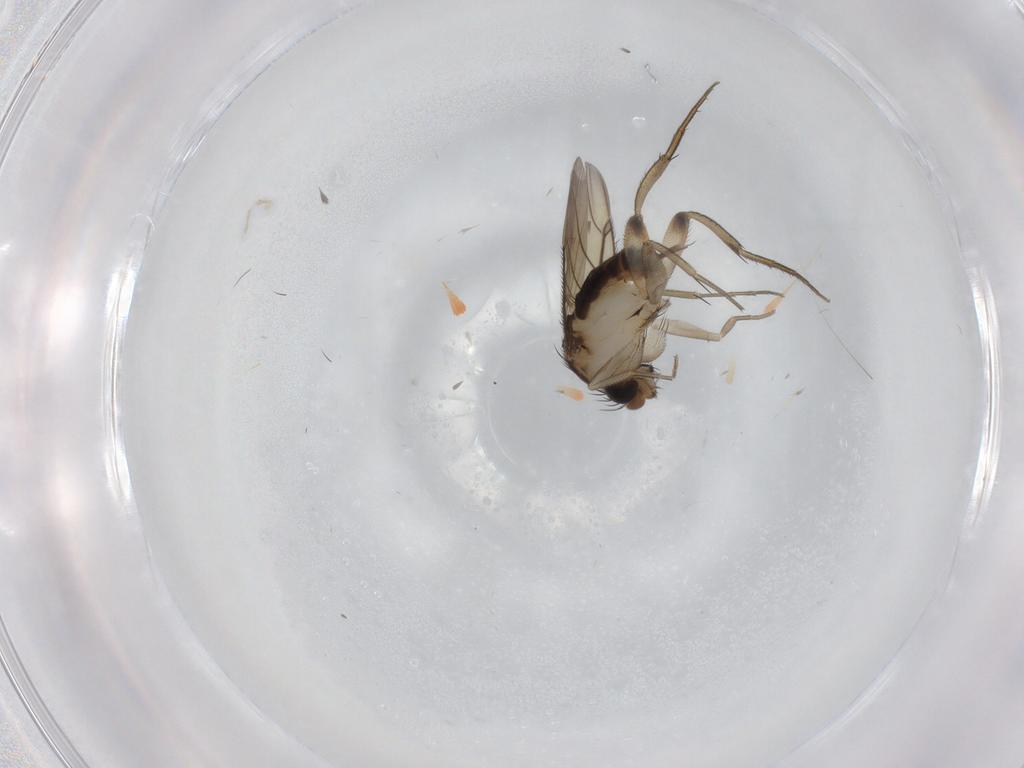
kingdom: Animalia
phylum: Arthropoda
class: Insecta
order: Diptera
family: Phoridae
